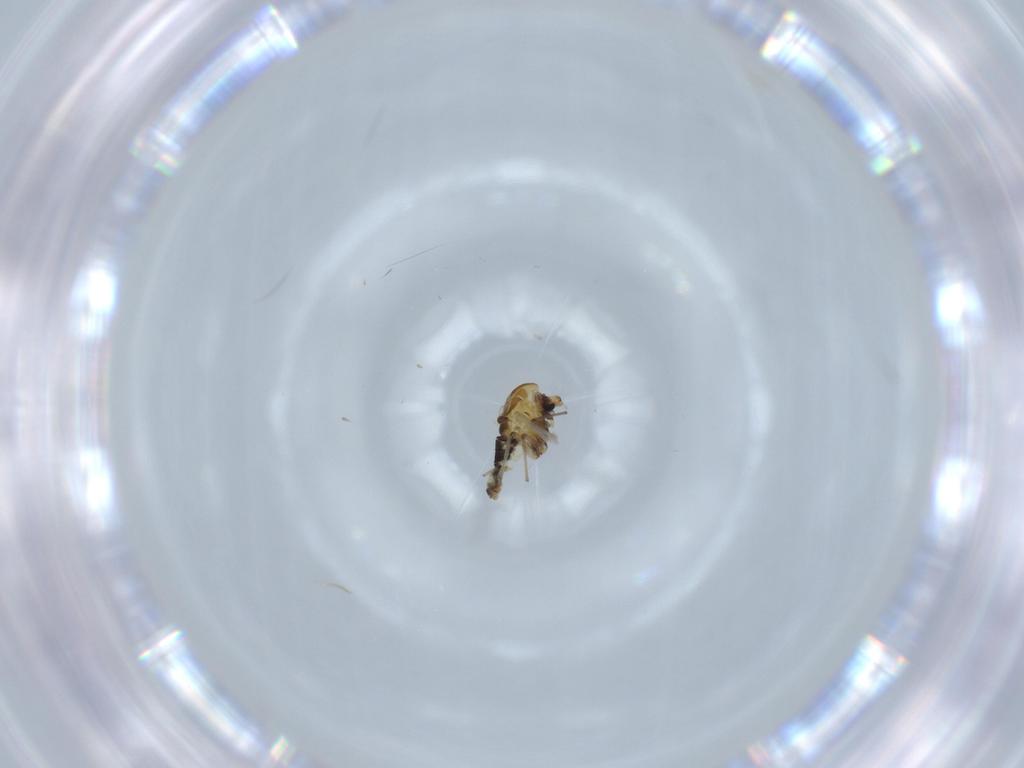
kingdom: Animalia
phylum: Arthropoda
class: Insecta
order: Diptera
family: Chironomidae
